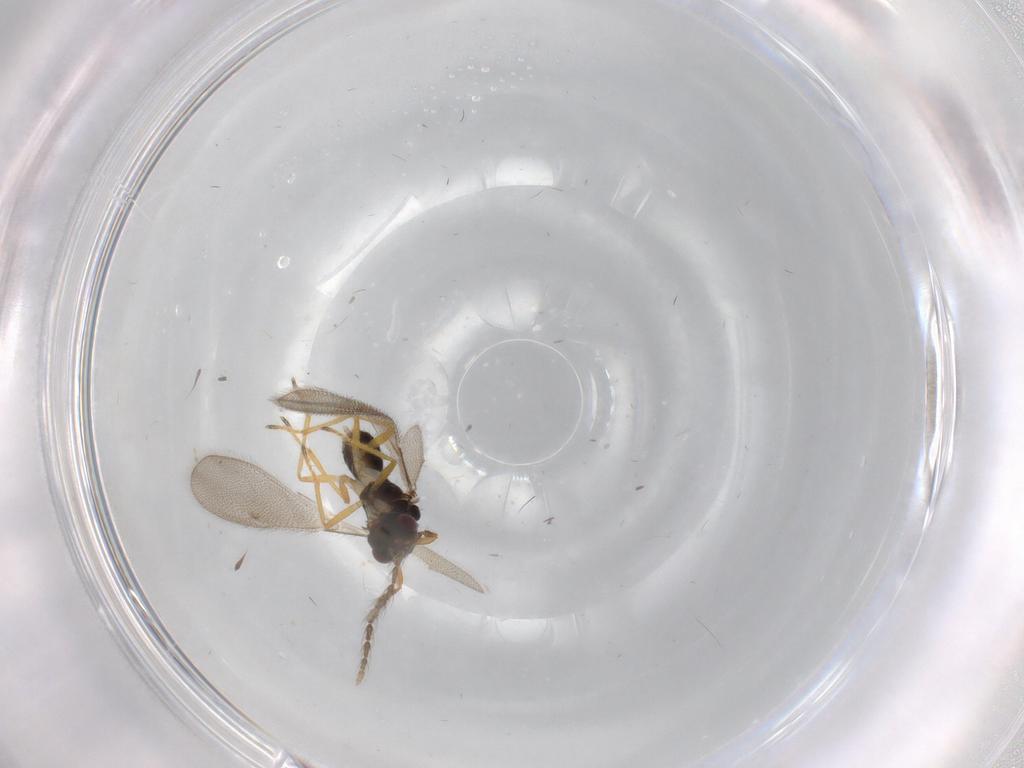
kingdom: Animalia
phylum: Arthropoda
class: Insecta
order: Hymenoptera
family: Eulophidae
